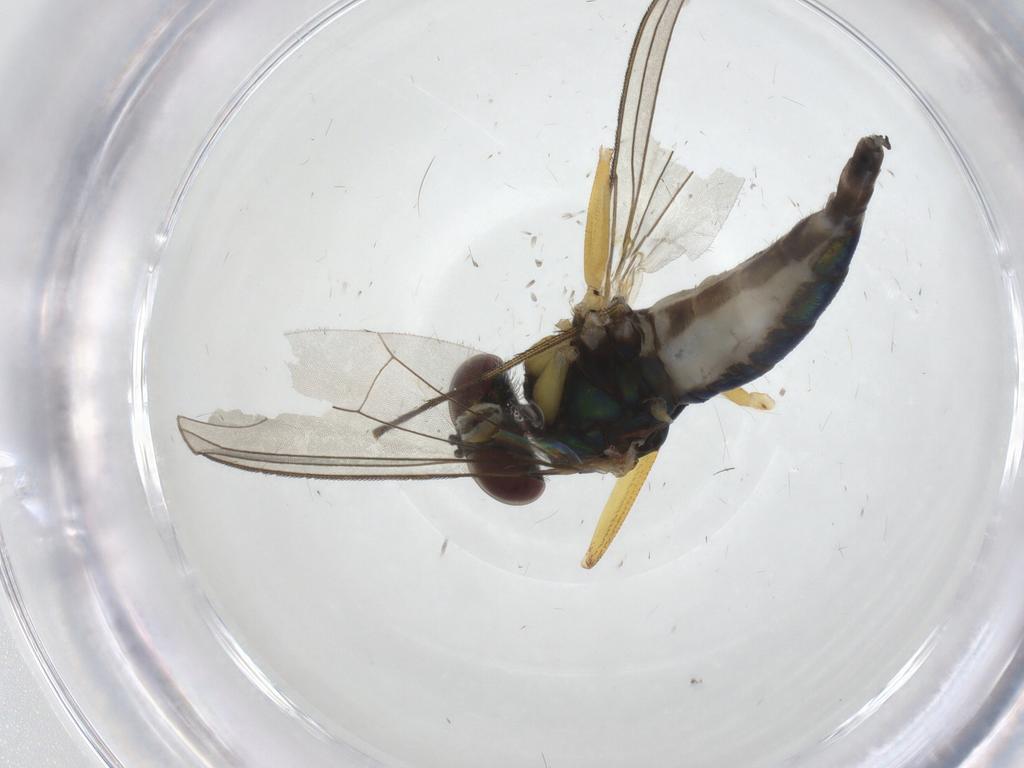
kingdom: Animalia
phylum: Arthropoda
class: Insecta
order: Diptera
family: Dolichopodidae
